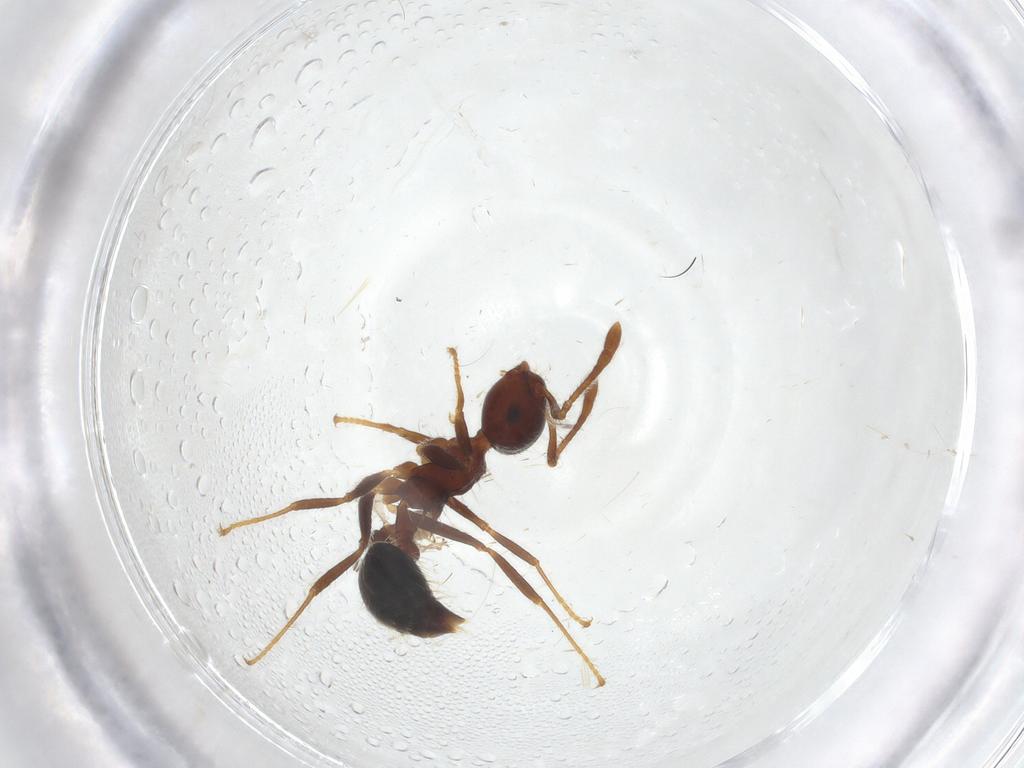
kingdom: Animalia
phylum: Arthropoda
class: Insecta
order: Hymenoptera
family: Formicidae
